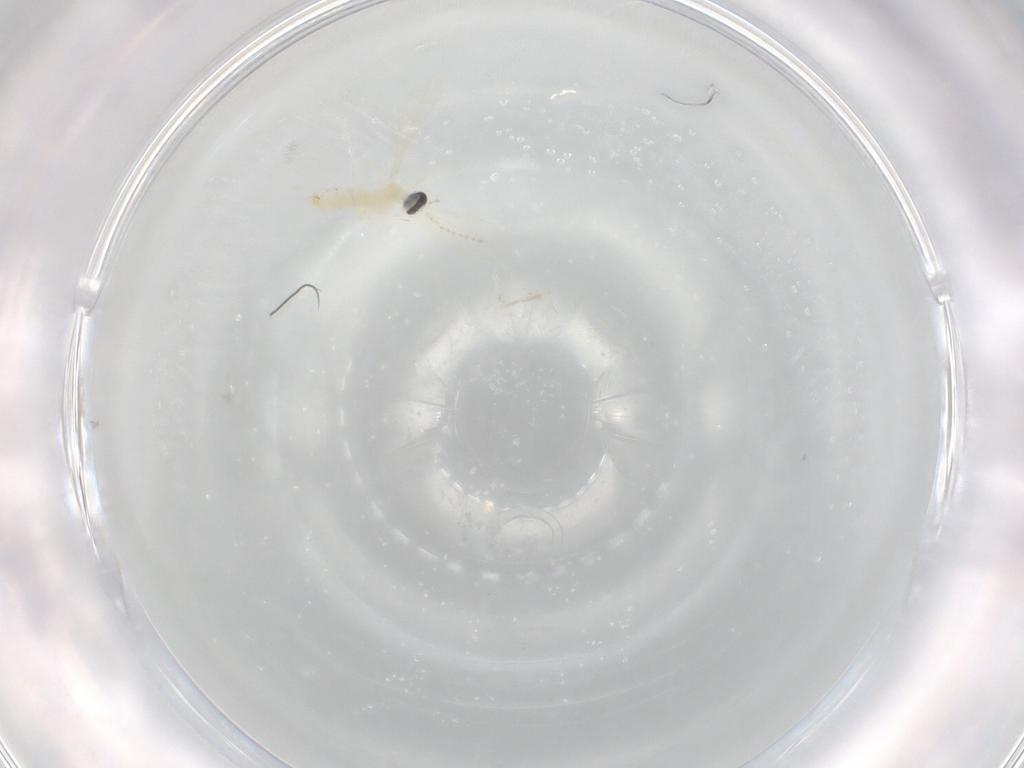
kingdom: Animalia
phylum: Arthropoda
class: Insecta
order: Diptera
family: Cecidomyiidae
